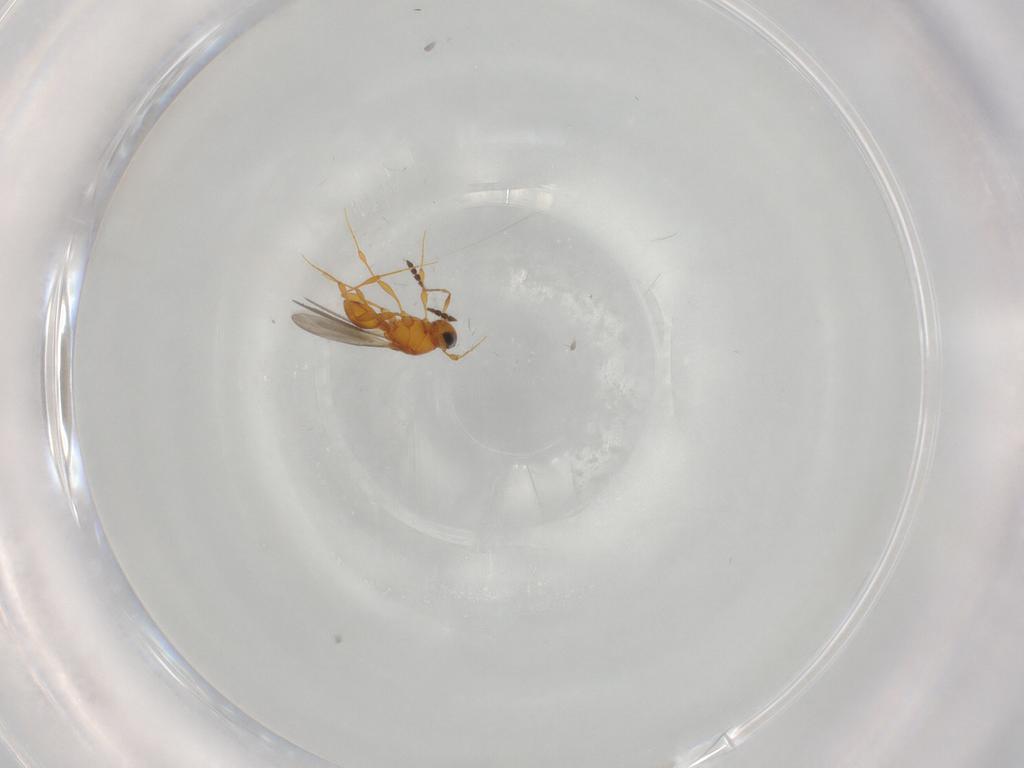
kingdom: Animalia
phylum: Arthropoda
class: Insecta
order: Hymenoptera
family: Platygastridae
